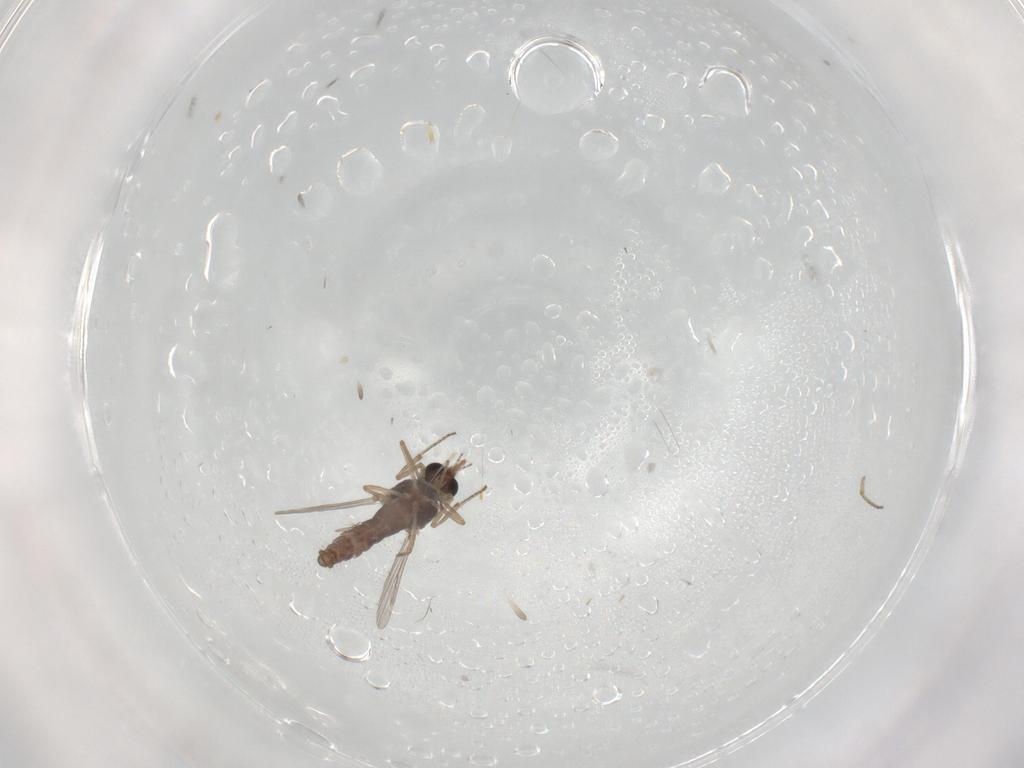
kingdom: Animalia
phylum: Arthropoda
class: Insecta
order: Diptera
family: Ceratopogonidae
